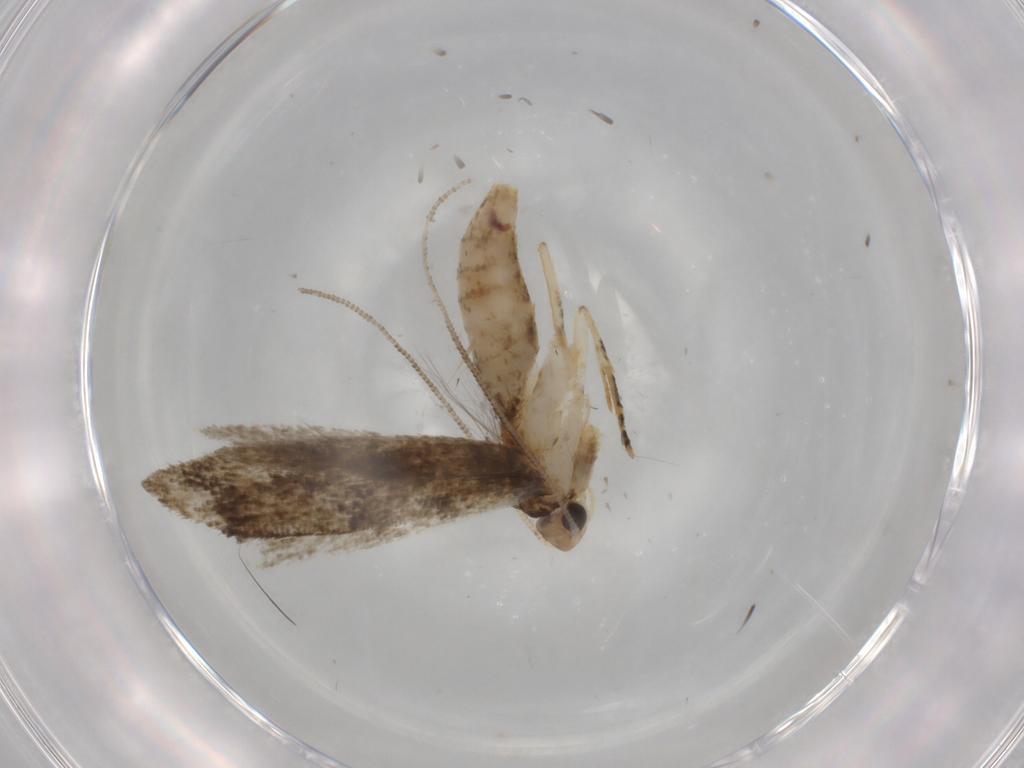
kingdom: Animalia
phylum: Arthropoda
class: Insecta
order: Lepidoptera
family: Meessiidae
